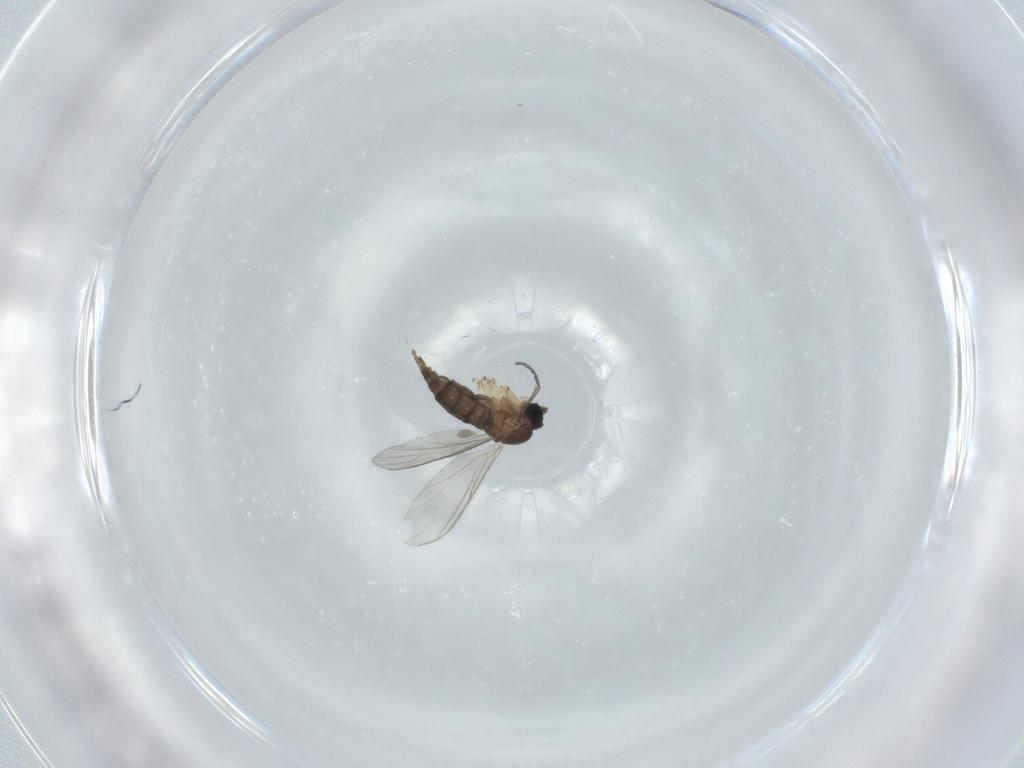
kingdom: Animalia
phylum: Arthropoda
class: Insecta
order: Diptera
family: Sciaridae
